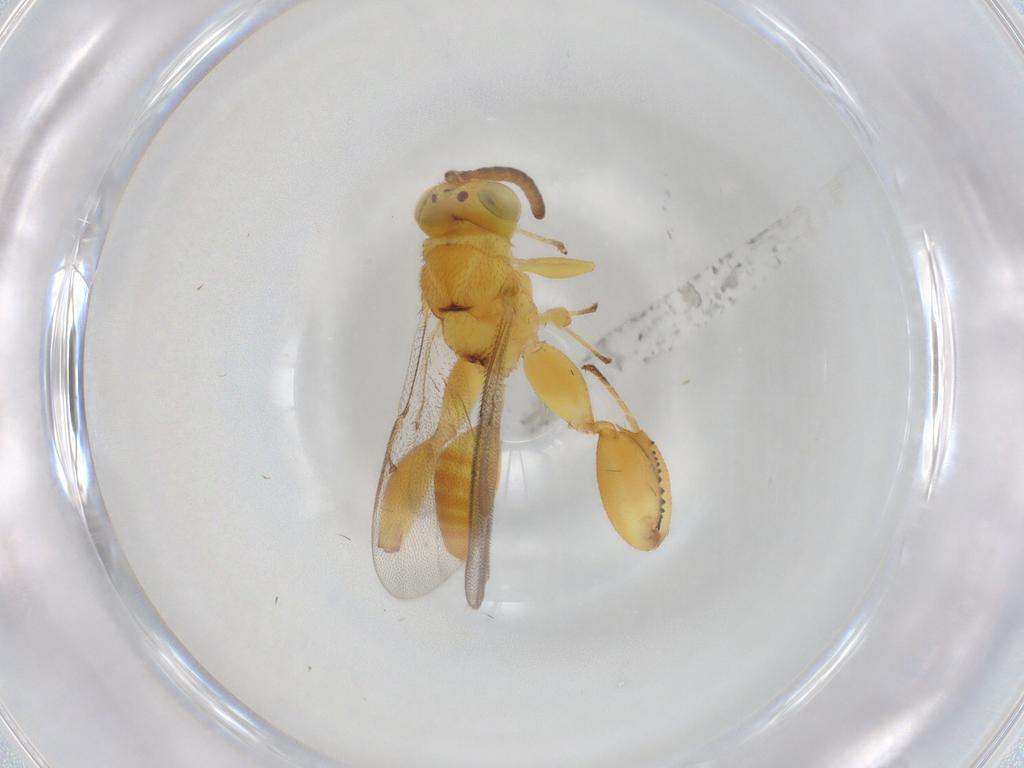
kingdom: Animalia
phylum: Arthropoda
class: Insecta
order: Hymenoptera
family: Chalcididae
